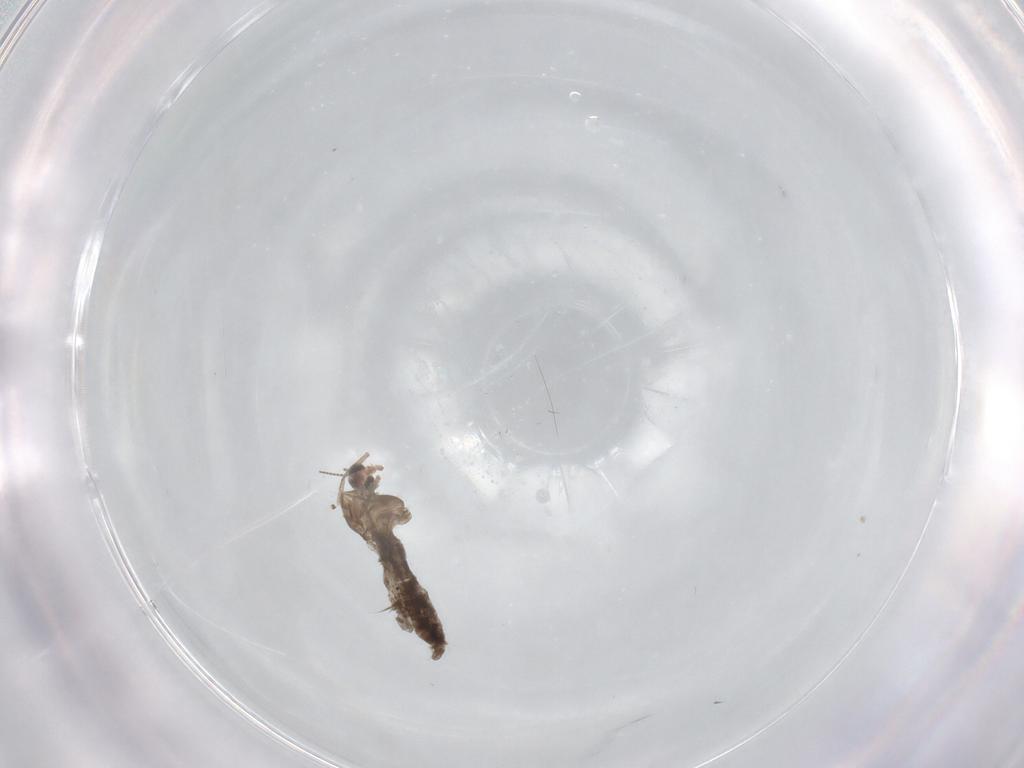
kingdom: Animalia
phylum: Arthropoda
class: Insecta
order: Diptera
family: Chironomidae
